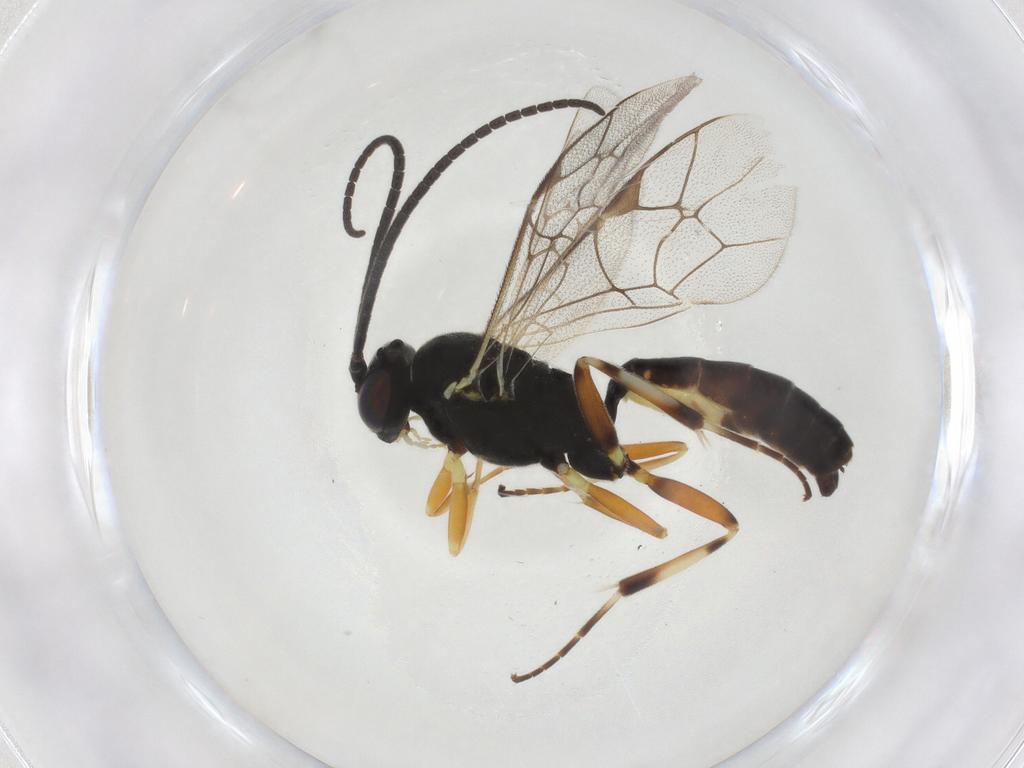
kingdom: Animalia
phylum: Arthropoda
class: Insecta
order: Hymenoptera
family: Ichneumonidae
